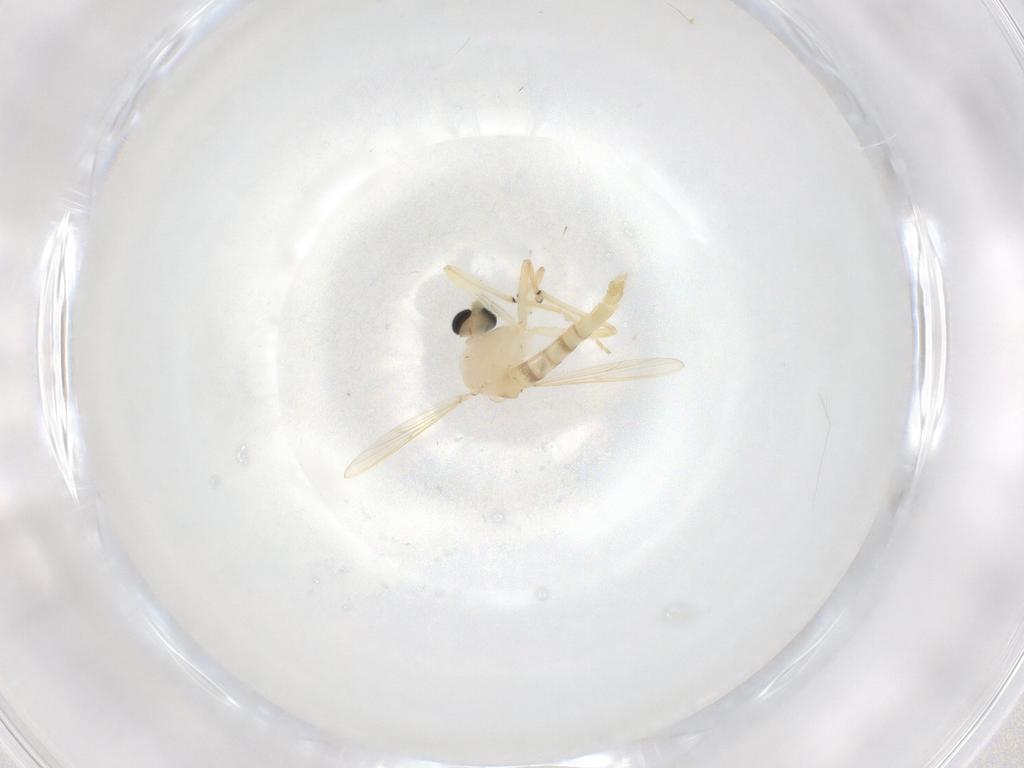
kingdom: Animalia
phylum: Arthropoda
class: Insecta
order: Diptera
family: Chironomidae
